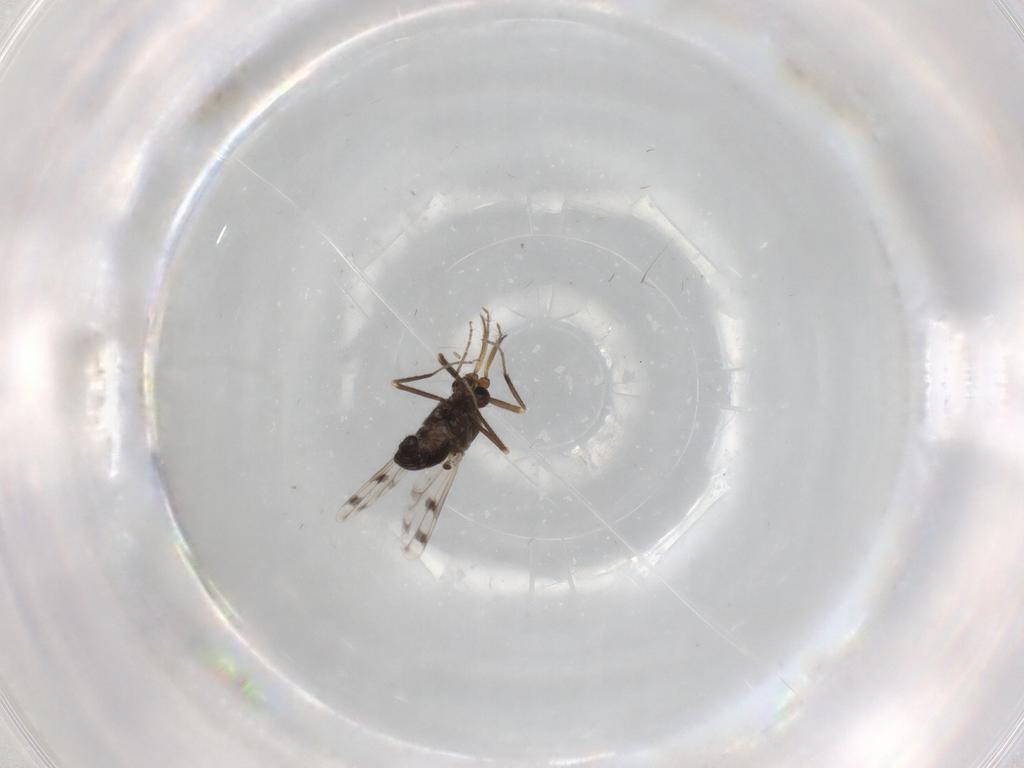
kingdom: Animalia
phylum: Arthropoda
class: Insecta
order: Diptera
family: Ceratopogonidae
